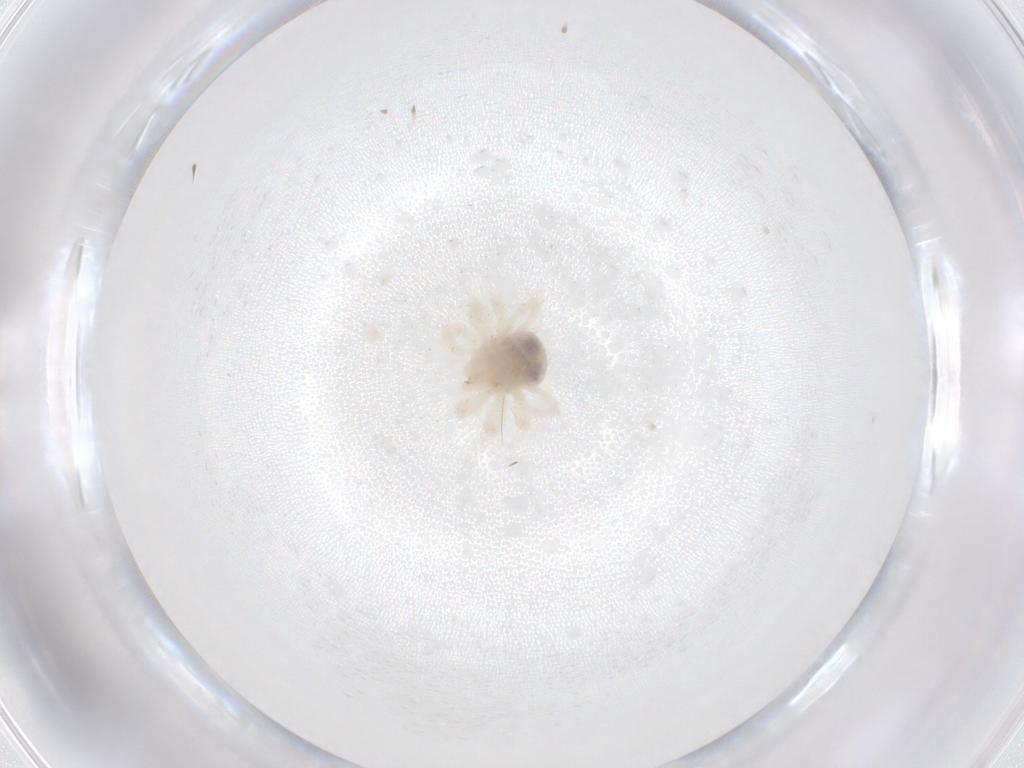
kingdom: Animalia
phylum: Arthropoda
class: Arachnida
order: Trombidiformes
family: Anystidae
